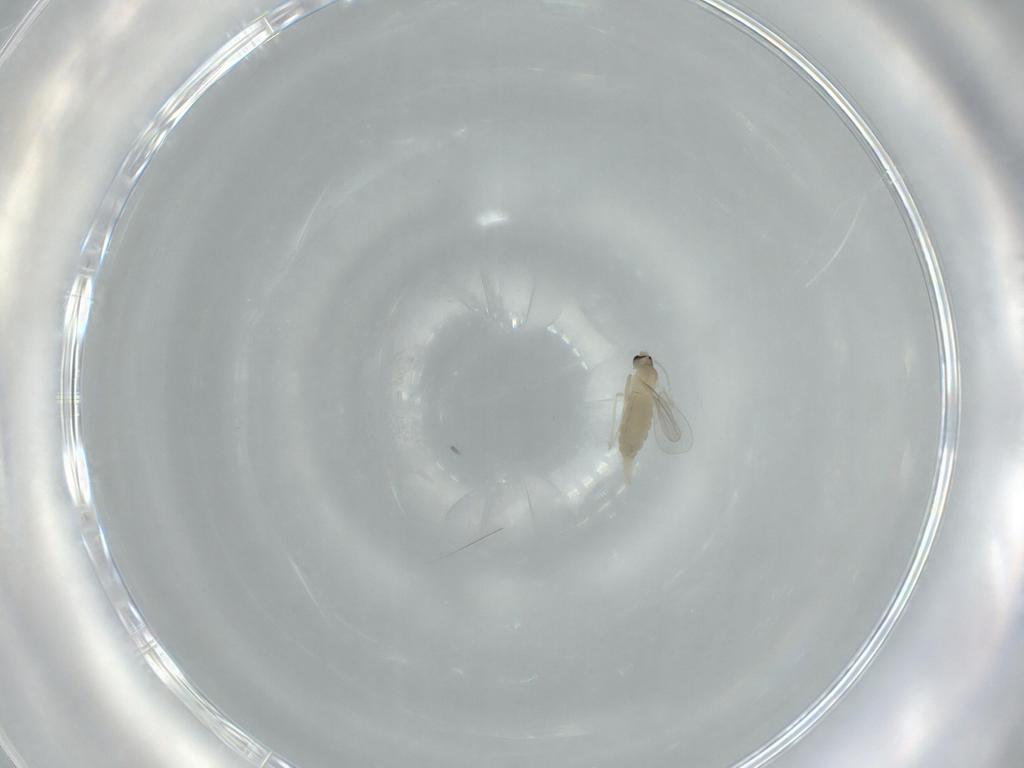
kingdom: Animalia
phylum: Arthropoda
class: Insecta
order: Diptera
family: Cecidomyiidae
